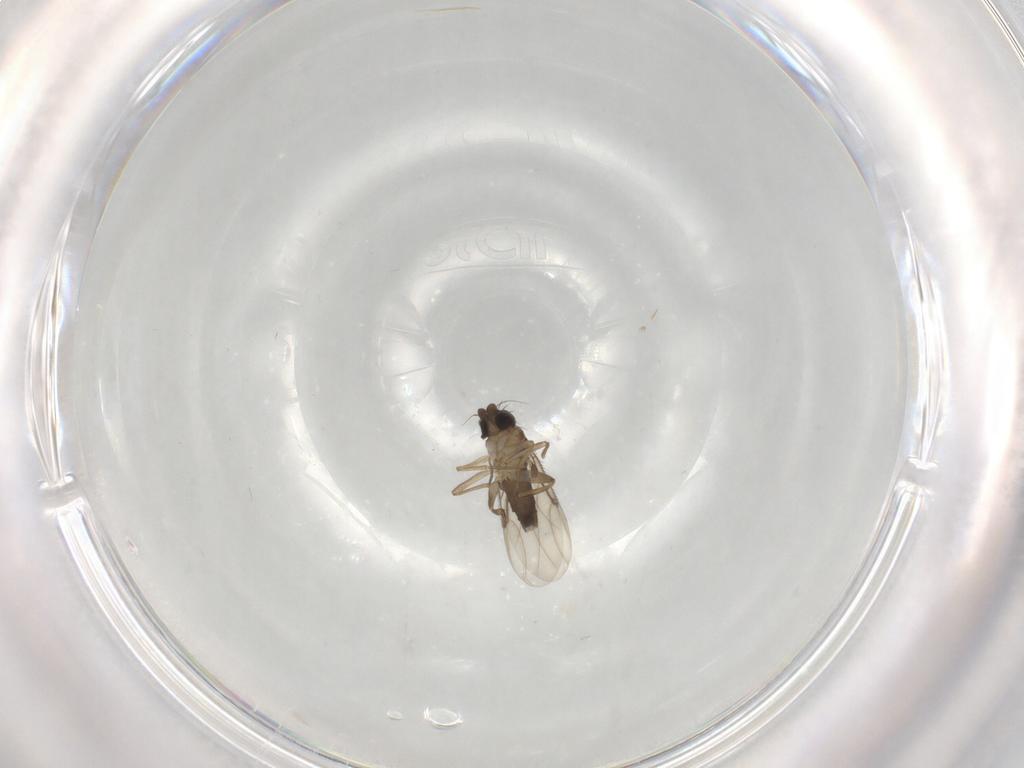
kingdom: Animalia
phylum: Arthropoda
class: Insecta
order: Diptera
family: Phoridae
